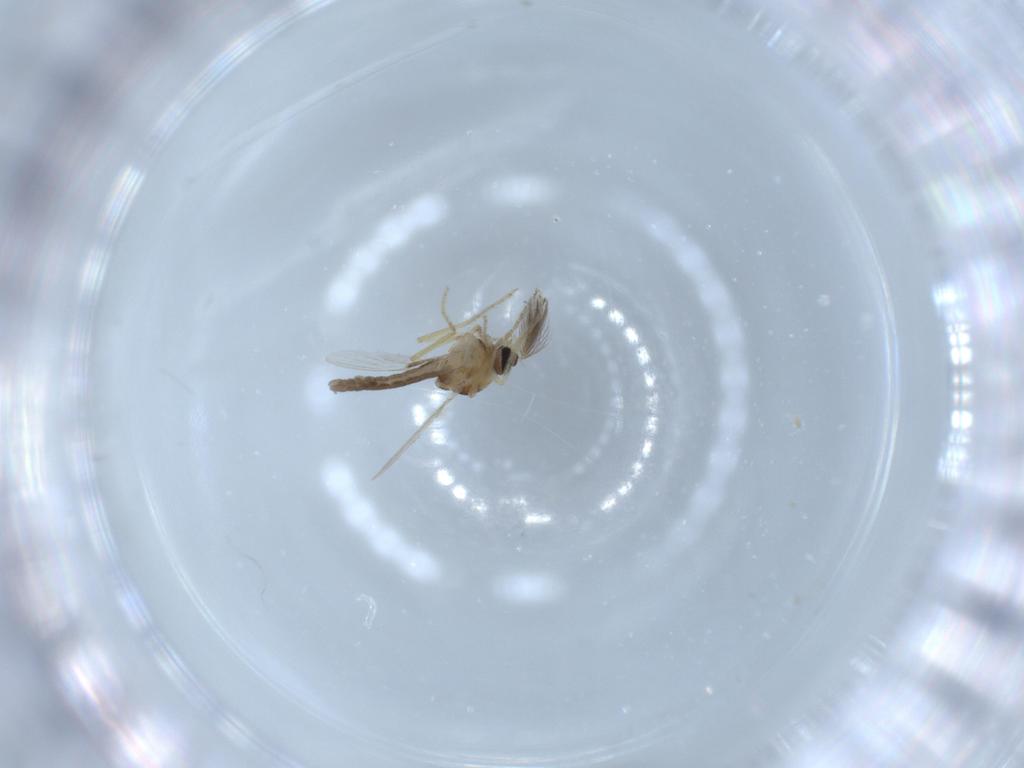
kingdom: Animalia
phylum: Arthropoda
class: Insecta
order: Diptera
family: Ceratopogonidae
